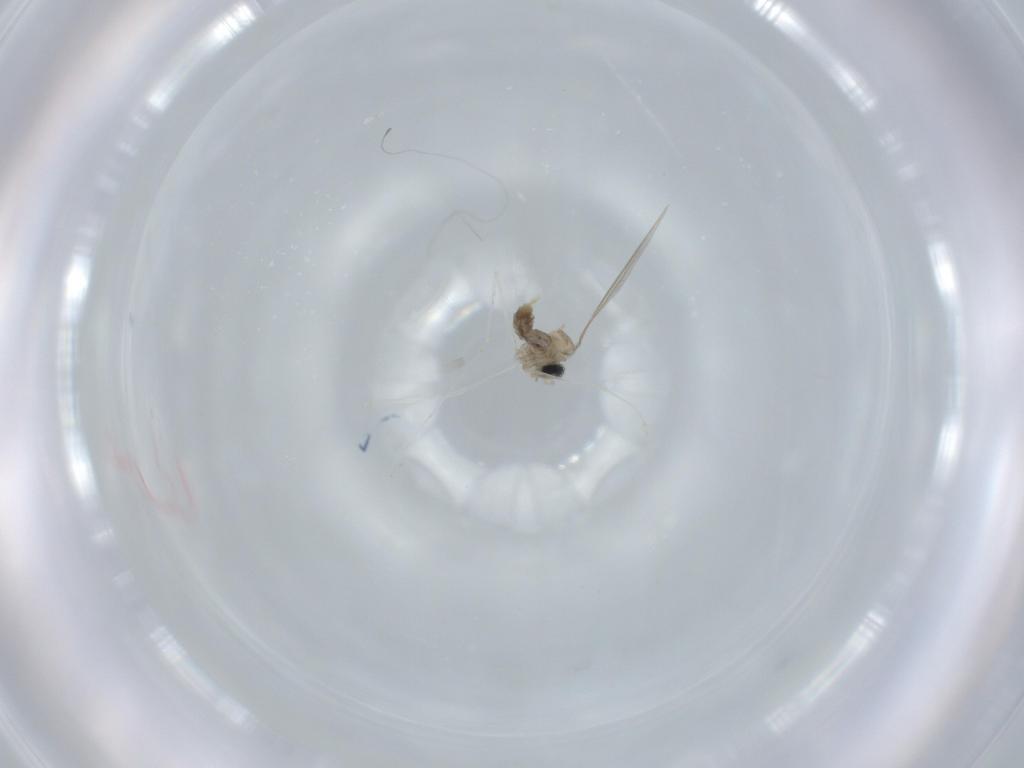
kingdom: Animalia
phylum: Arthropoda
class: Insecta
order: Diptera
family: Cecidomyiidae
